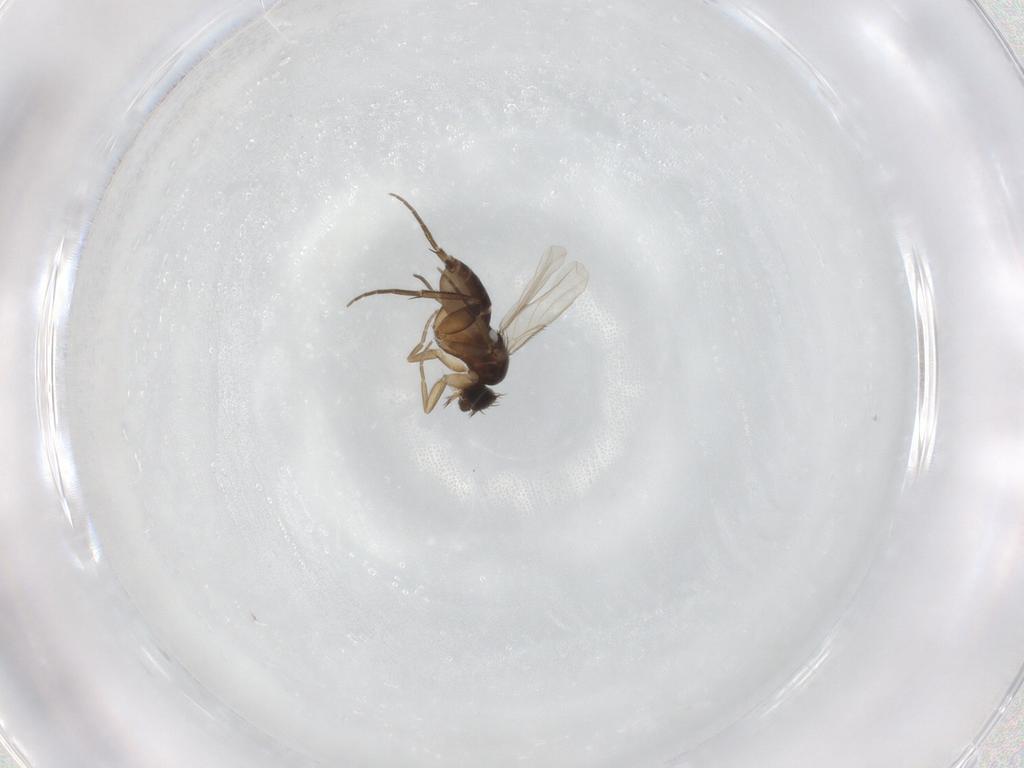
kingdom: Animalia
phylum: Arthropoda
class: Insecta
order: Diptera
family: Phoridae
